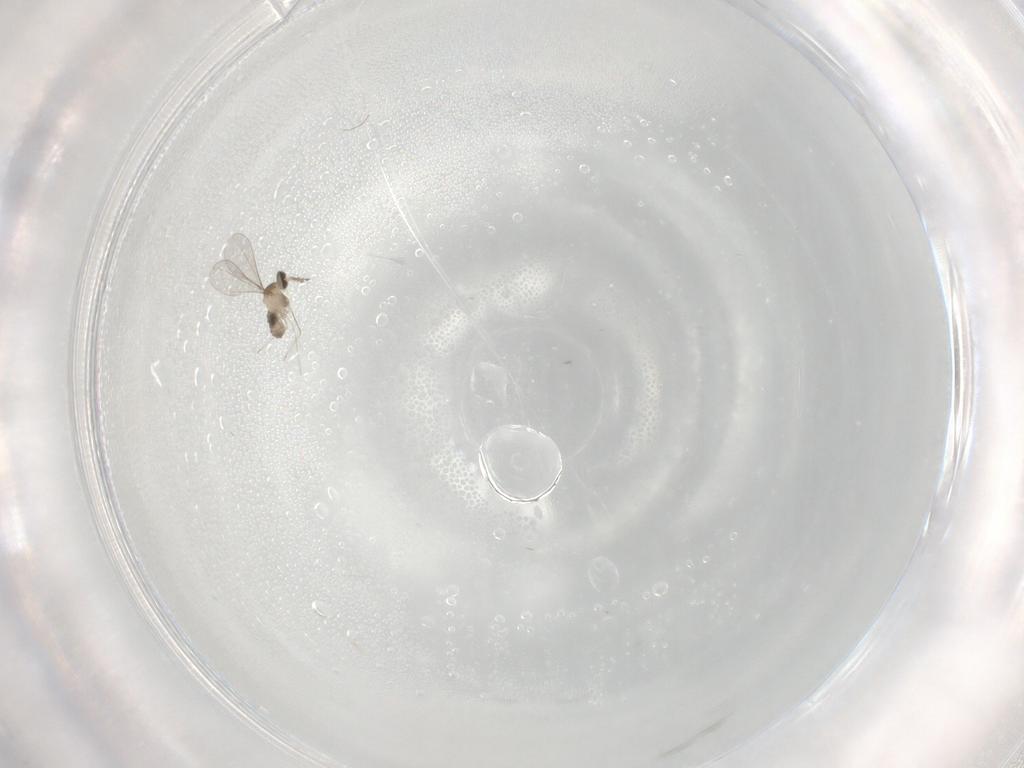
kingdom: Animalia
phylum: Arthropoda
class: Insecta
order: Diptera
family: Cecidomyiidae
